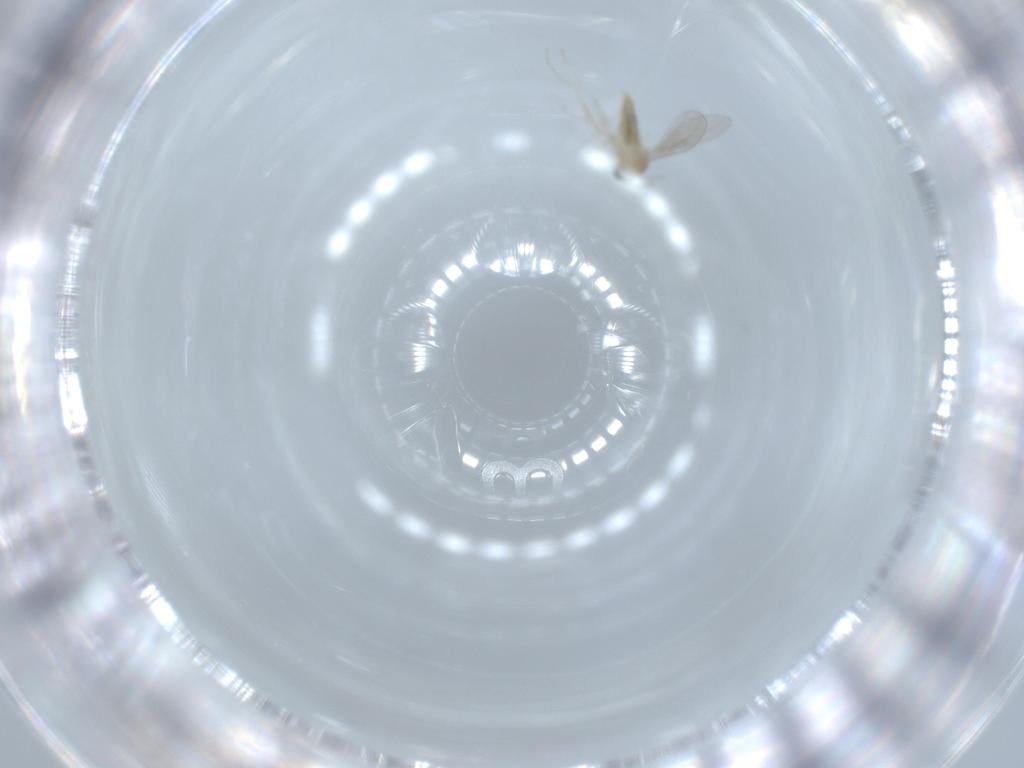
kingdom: Animalia
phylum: Arthropoda
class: Insecta
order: Diptera
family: Cecidomyiidae
